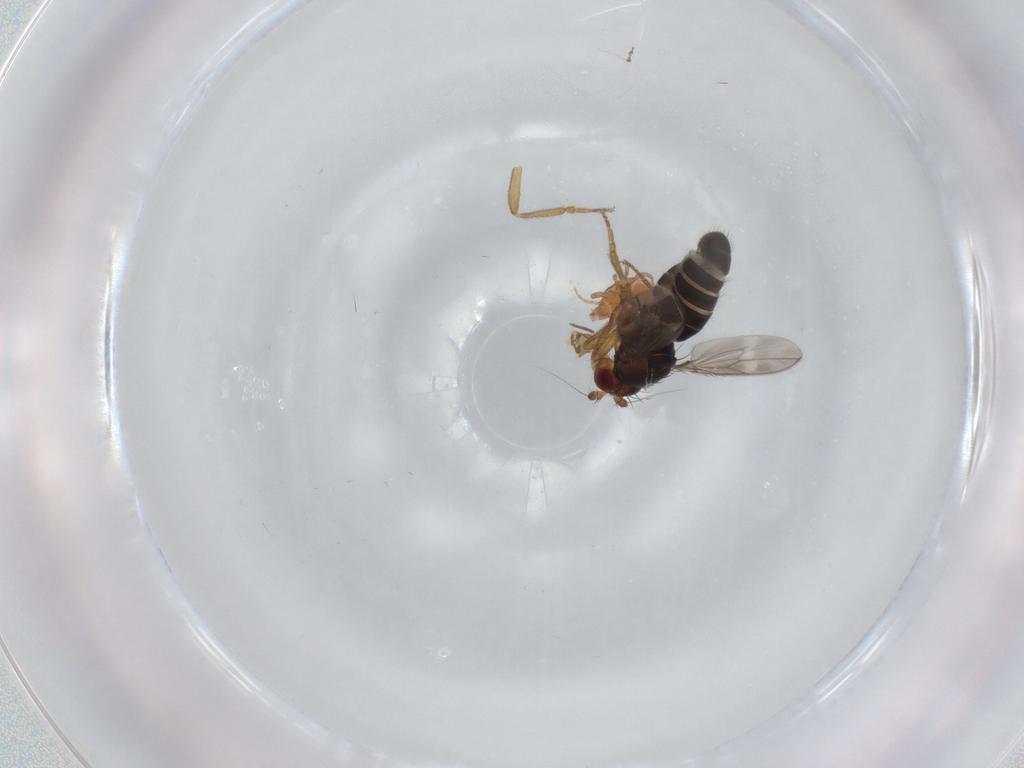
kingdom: Animalia
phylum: Arthropoda
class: Insecta
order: Diptera
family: Sphaeroceridae
